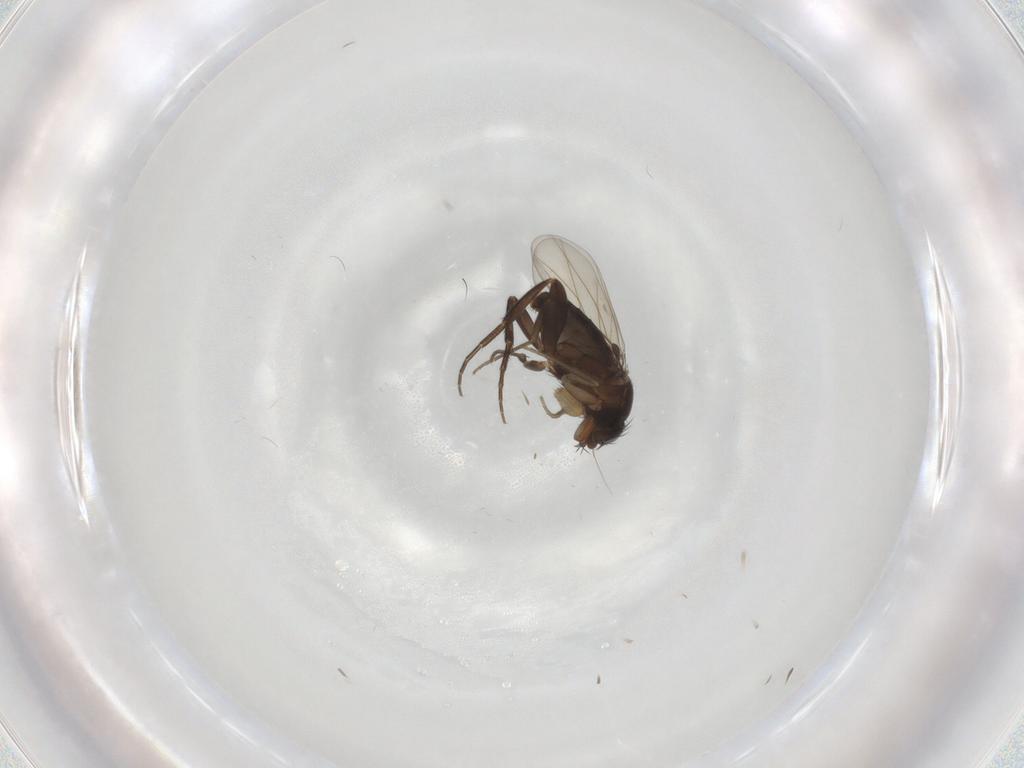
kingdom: Animalia
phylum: Arthropoda
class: Insecta
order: Diptera
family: Phoridae
